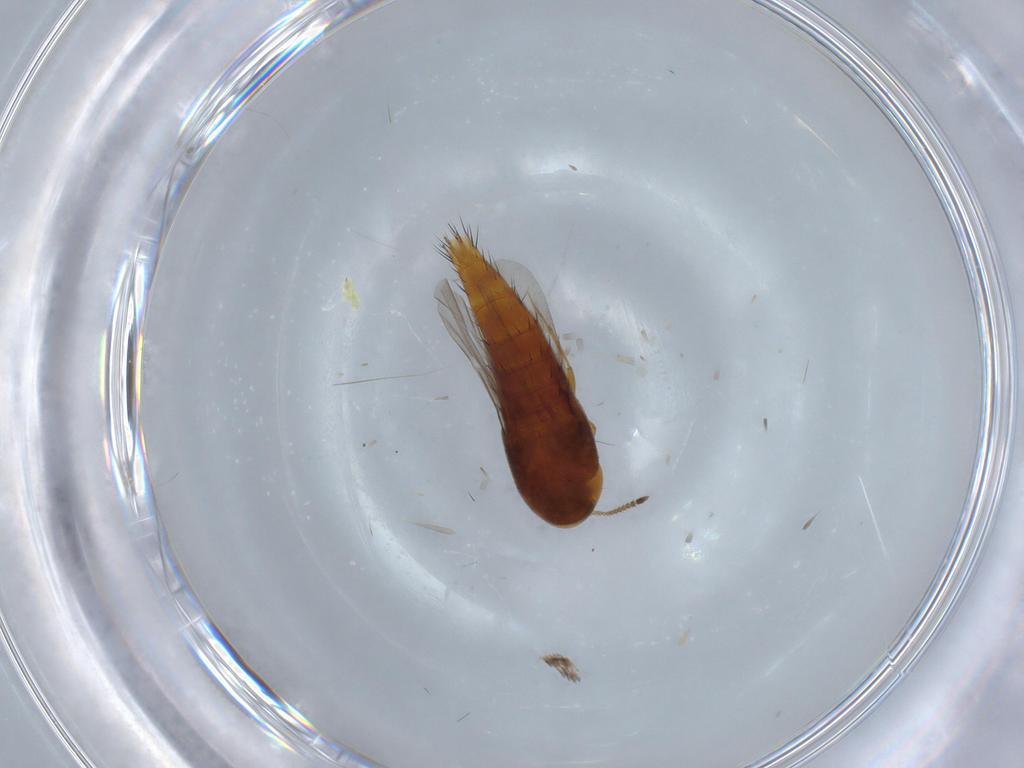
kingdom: Animalia
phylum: Arthropoda
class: Insecta
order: Coleoptera
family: Staphylinidae
